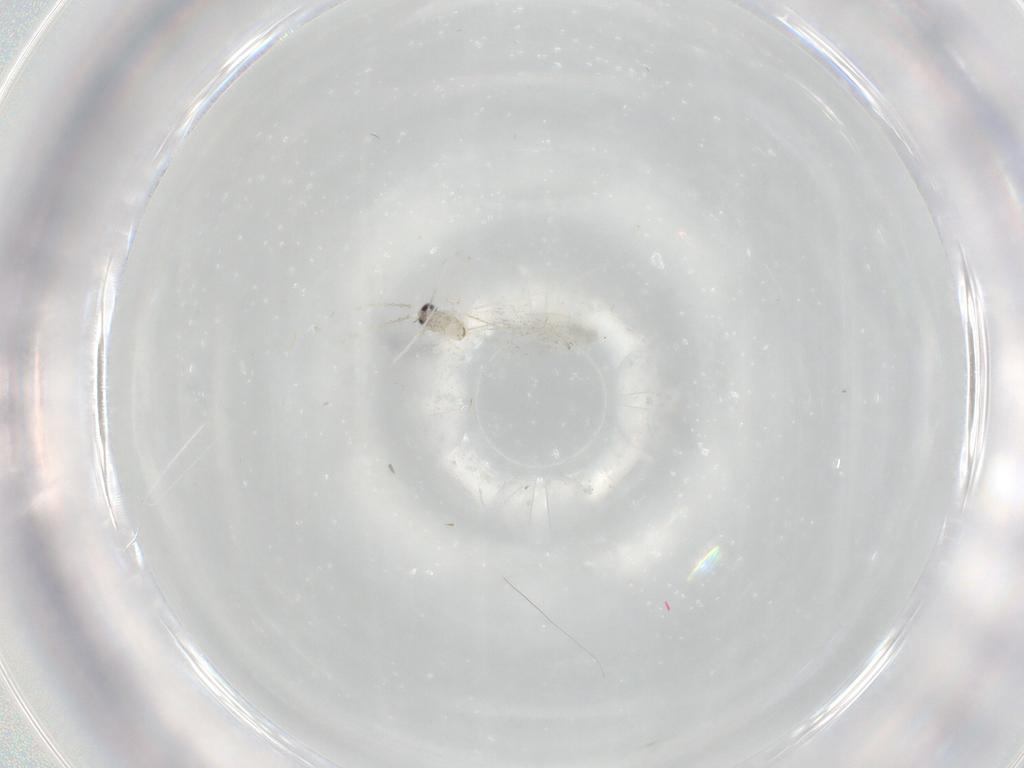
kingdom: Animalia
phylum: Arthropoda
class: Insecta
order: Diptera
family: Cecidomyiidae
